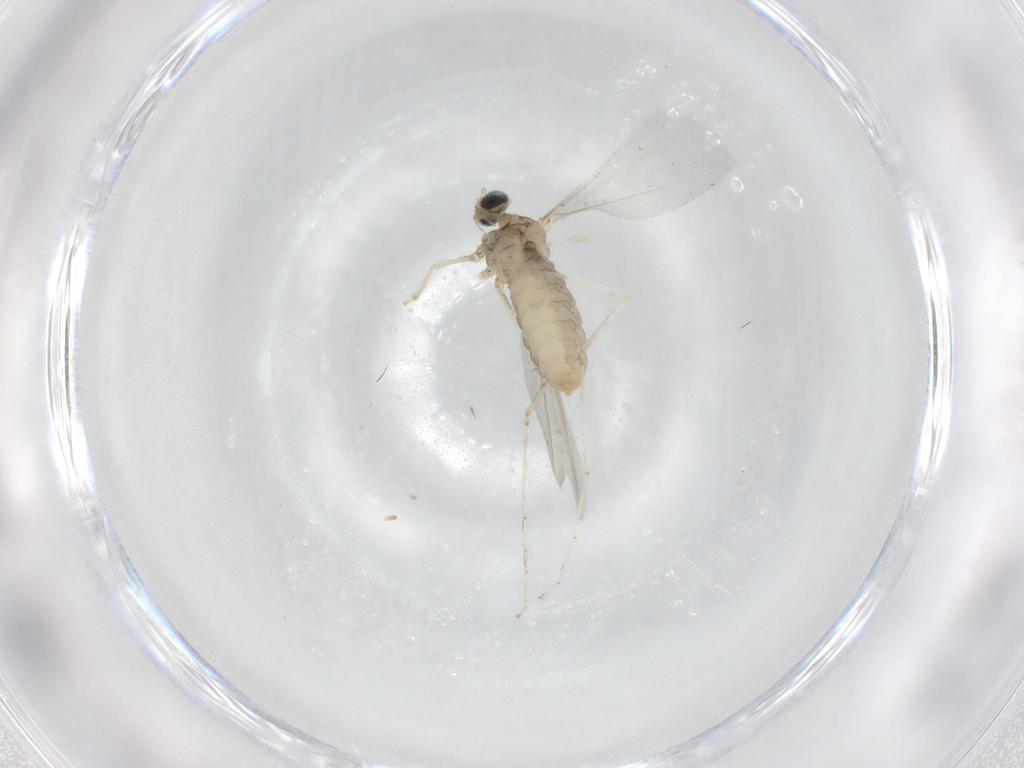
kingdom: Animalia
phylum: Arthropoda
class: Insecta
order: Diptera
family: Cecidomyiidae
